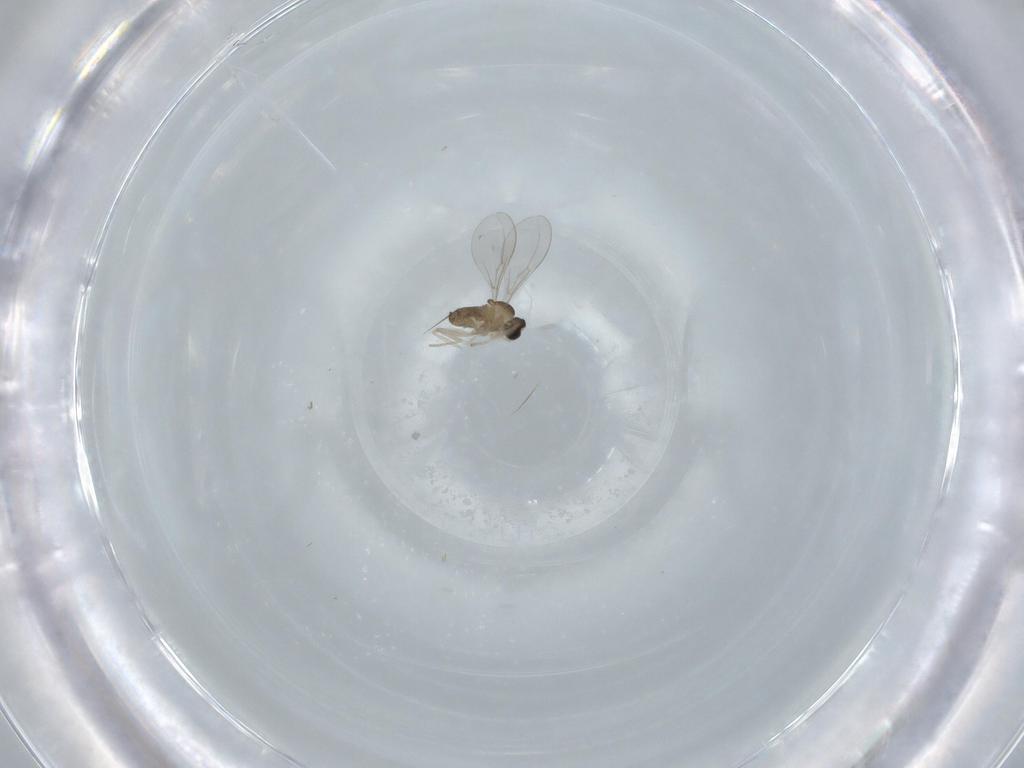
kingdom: Animalia
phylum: Arthropoda
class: Insecta
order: Diptera
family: Cecidomyiidae
